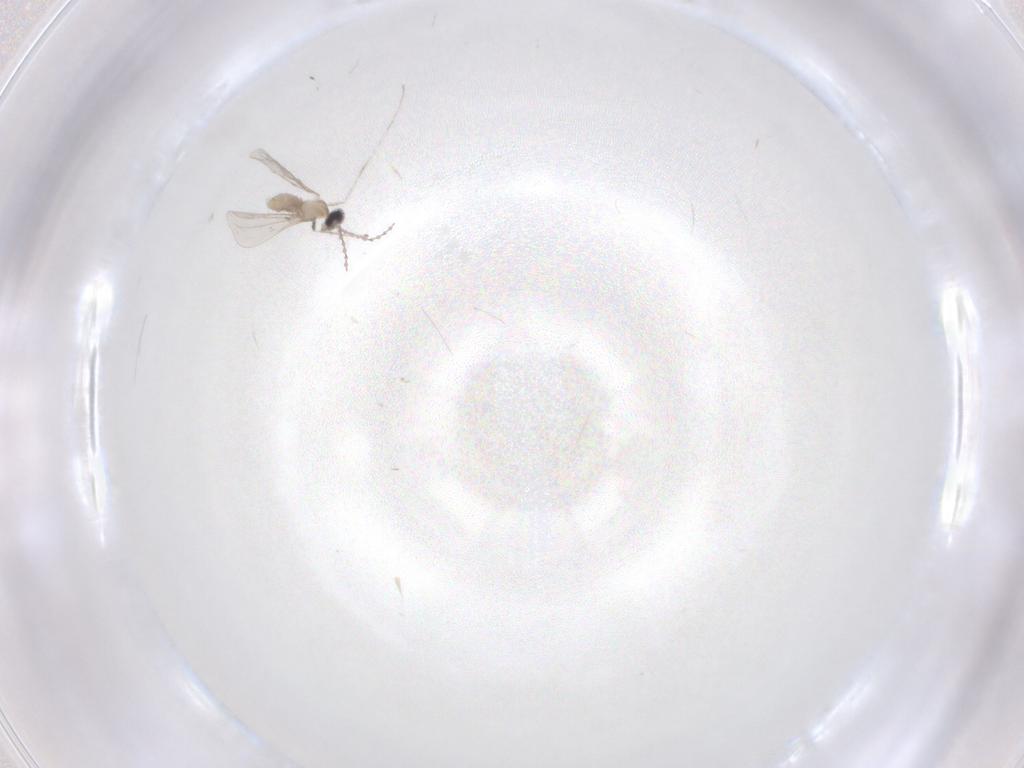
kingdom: Animalia
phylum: Arthropoda
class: Insecta
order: Diptera
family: Cecidomyiidae
